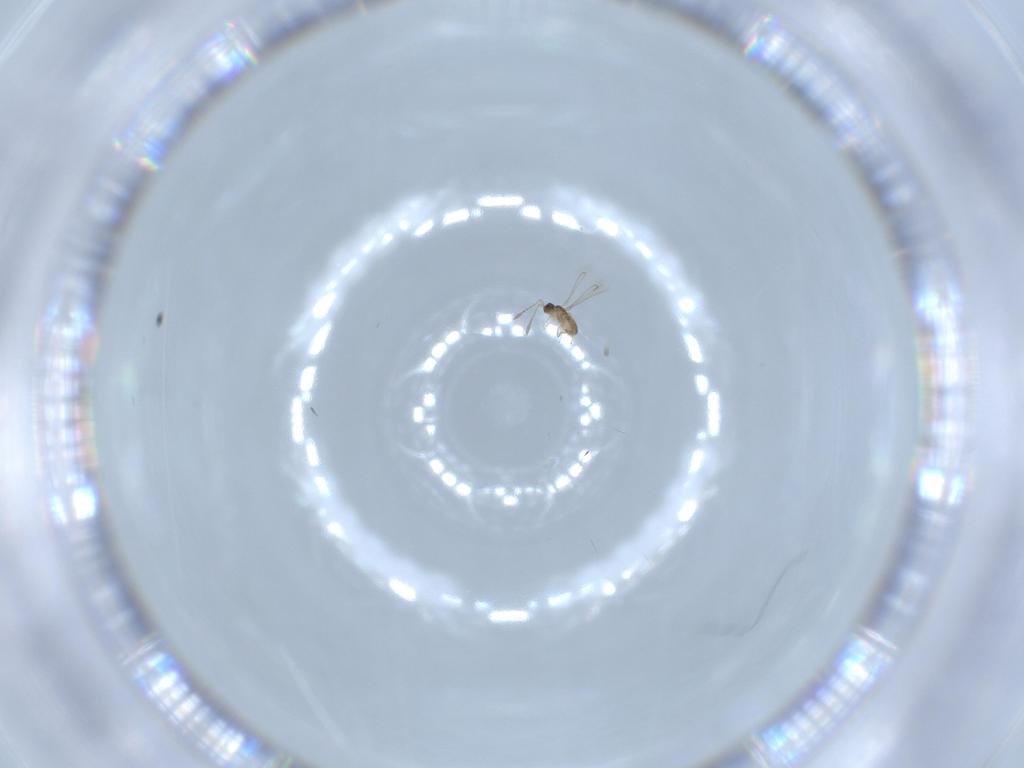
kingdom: Animalia
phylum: Arthropoda
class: Insecta
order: Hymenoptera
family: Mymaridae
